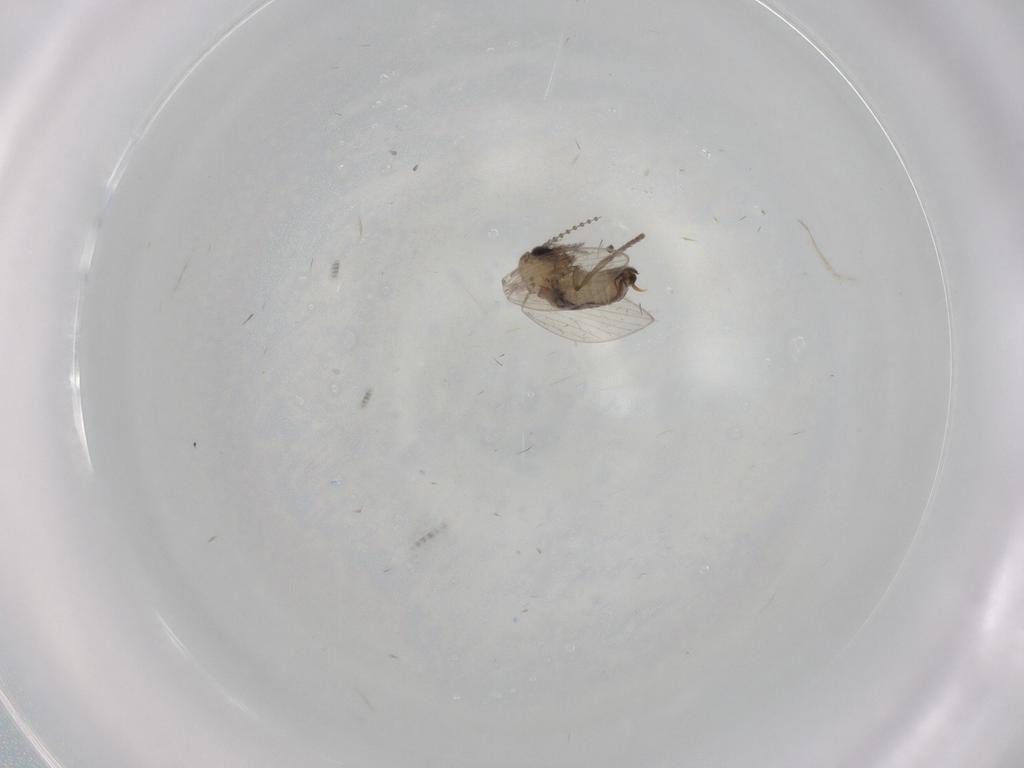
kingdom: Animalia
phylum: Arthropoda
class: Insecta
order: Diptera
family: Psychodidae
